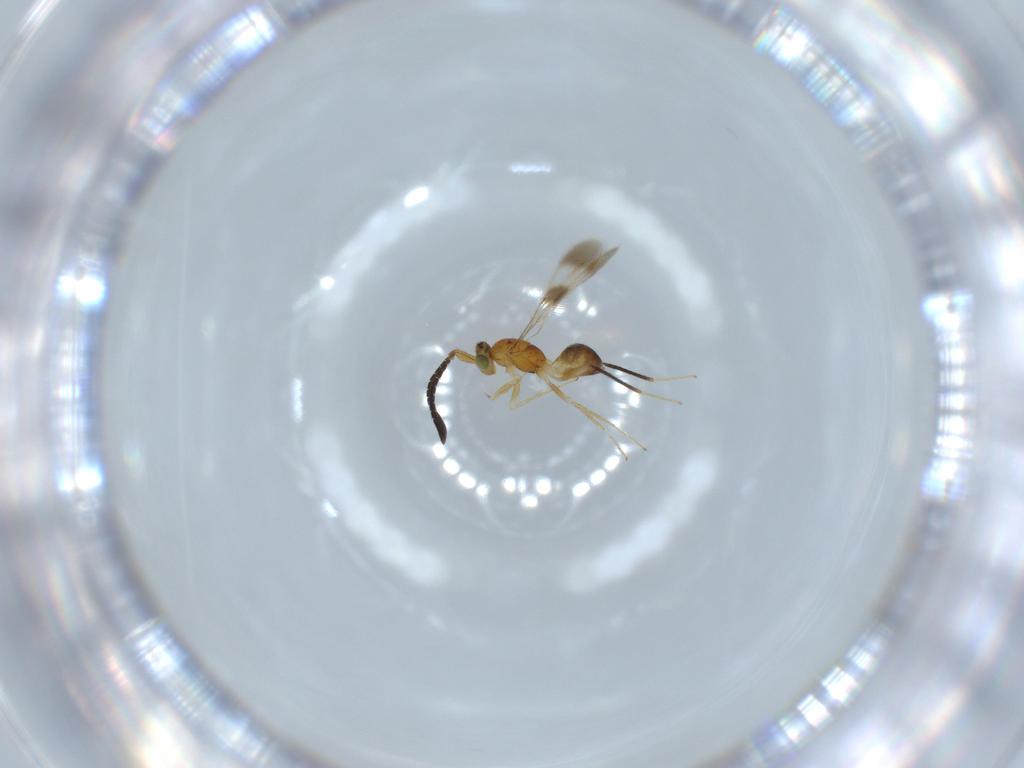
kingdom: Animalia
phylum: Arthropoda
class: Insecta
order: Hymenoptera
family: Mymaridae
